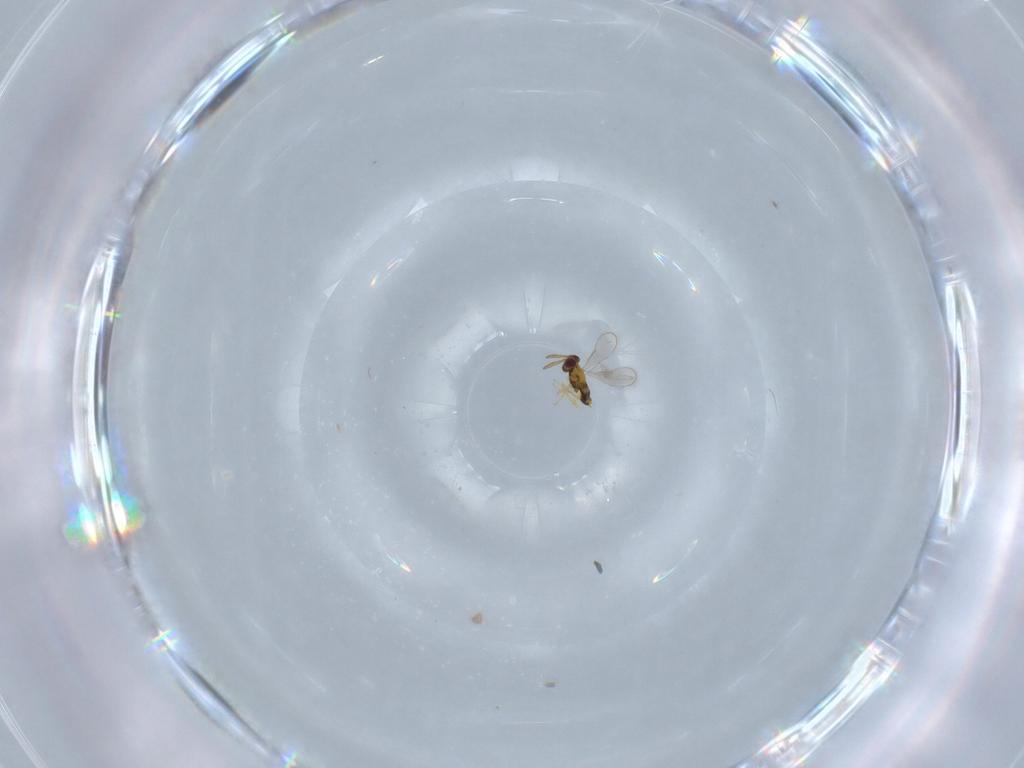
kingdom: Animalia
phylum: Arthropoda
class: Insecta
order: Hymenoptera
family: Aphelinidae
